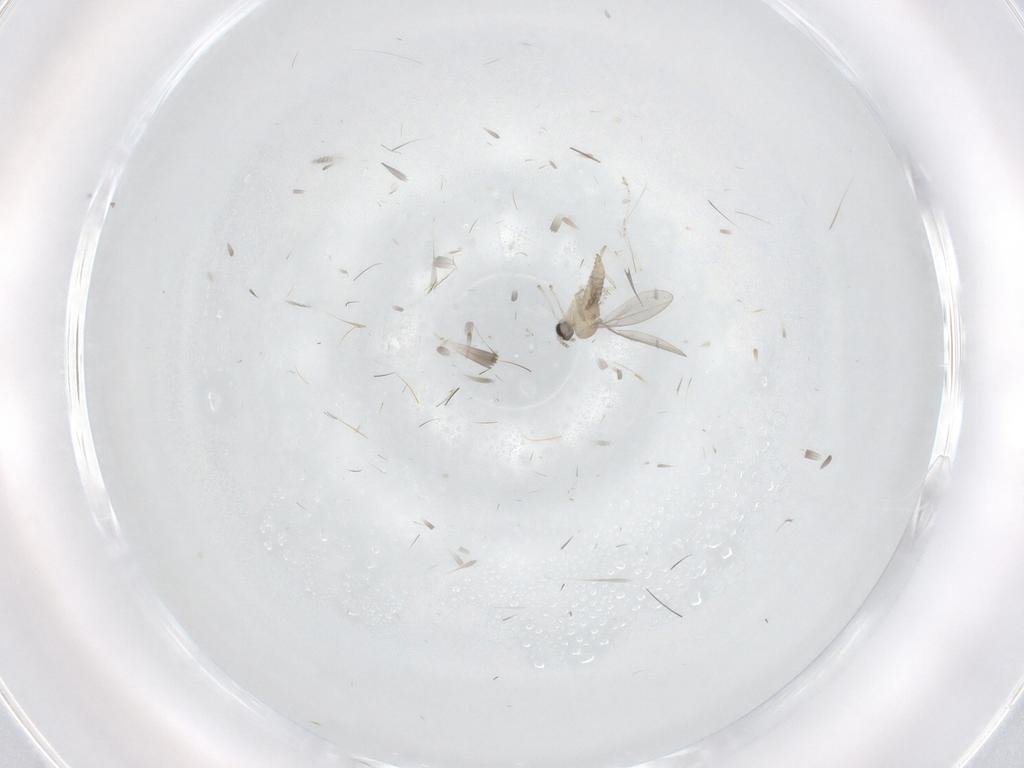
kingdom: Animalia
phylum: Arthropoda
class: Insecta
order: Diptera
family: Cecidomyiidae
